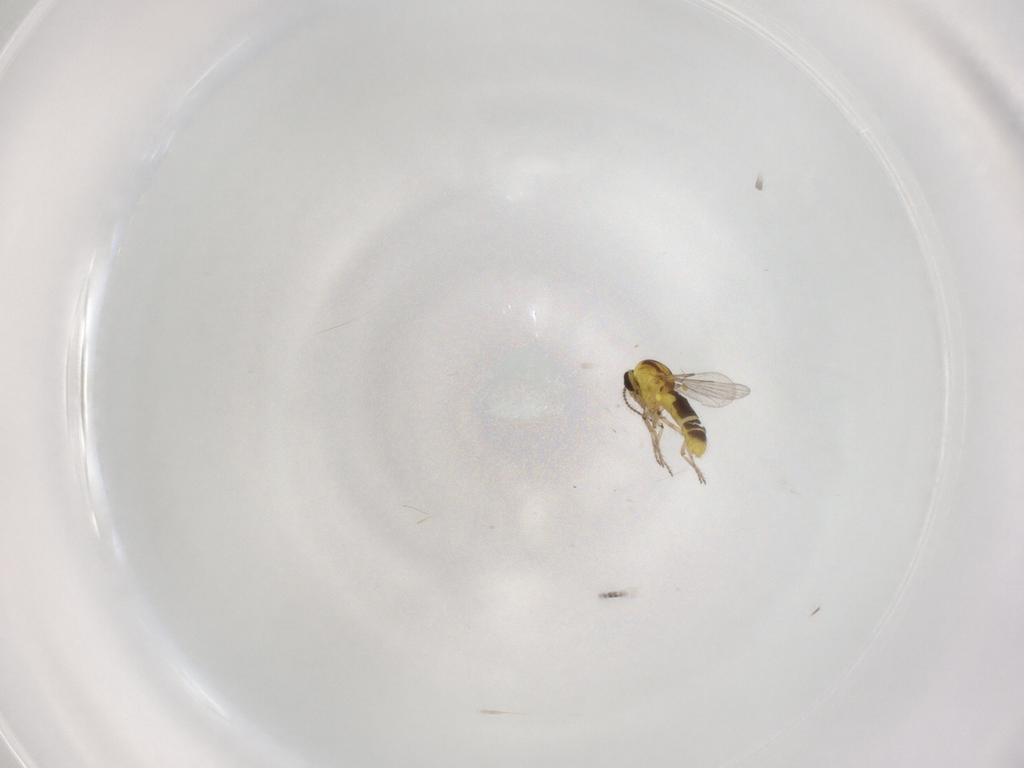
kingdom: Animalia
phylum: Arthropoda
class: Insecta
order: Diptera
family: Ceratopogonidae
